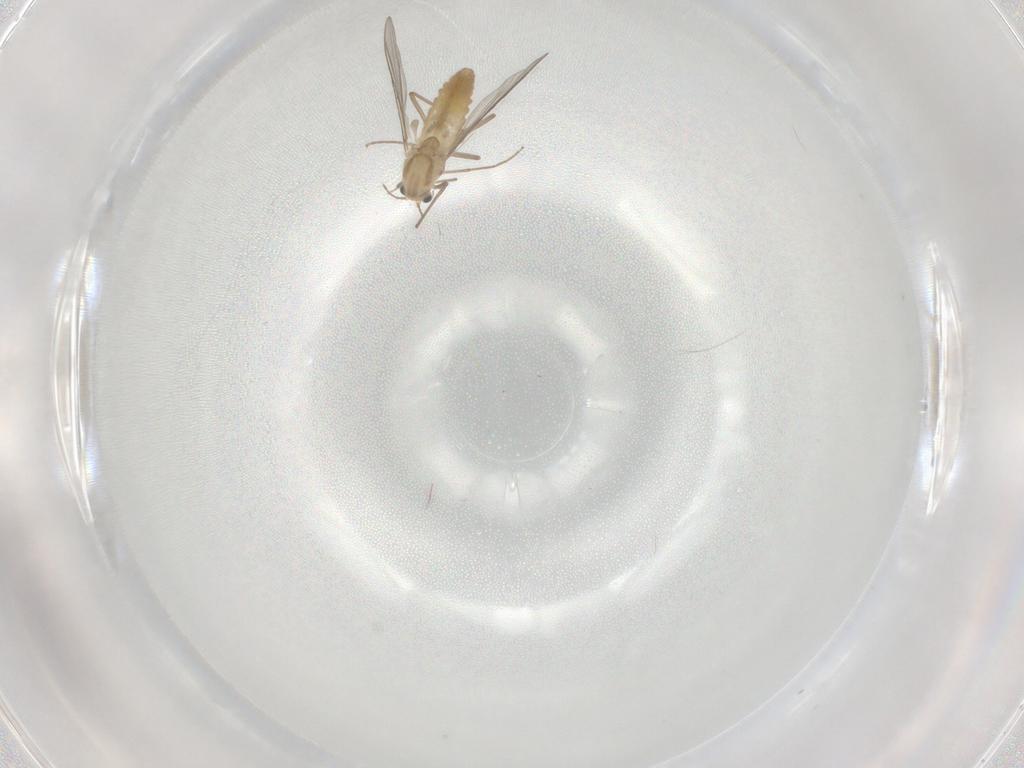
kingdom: Animalia
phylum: Arthropoda
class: Insecta
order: Diptera
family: Chironomidae
